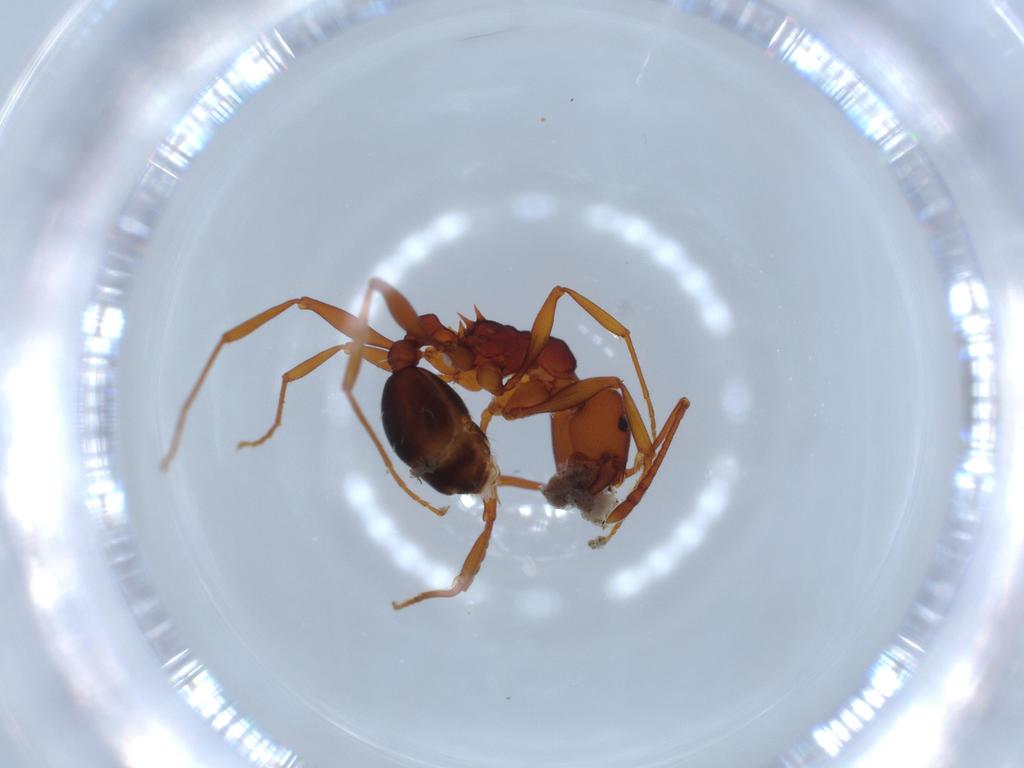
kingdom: Animalia
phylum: Arthropoda
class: Insecta
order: Hymenoptera
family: Formicidae
